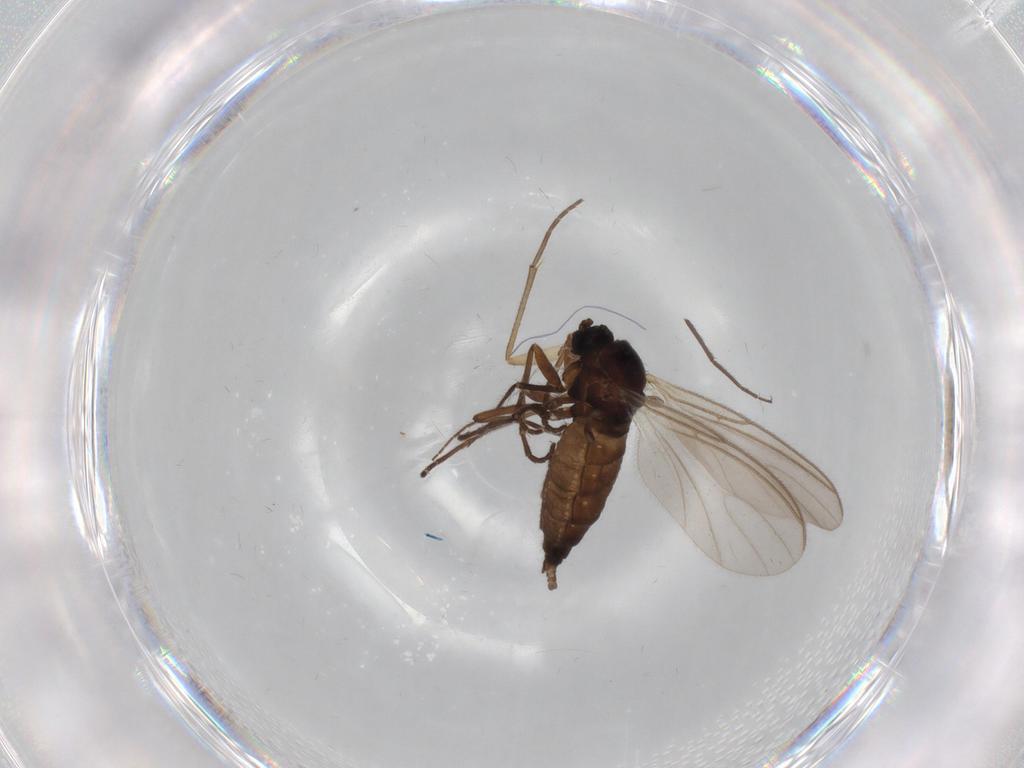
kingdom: Animalia
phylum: Arthropoda
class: Insecta
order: Diptera
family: Sciaridae
